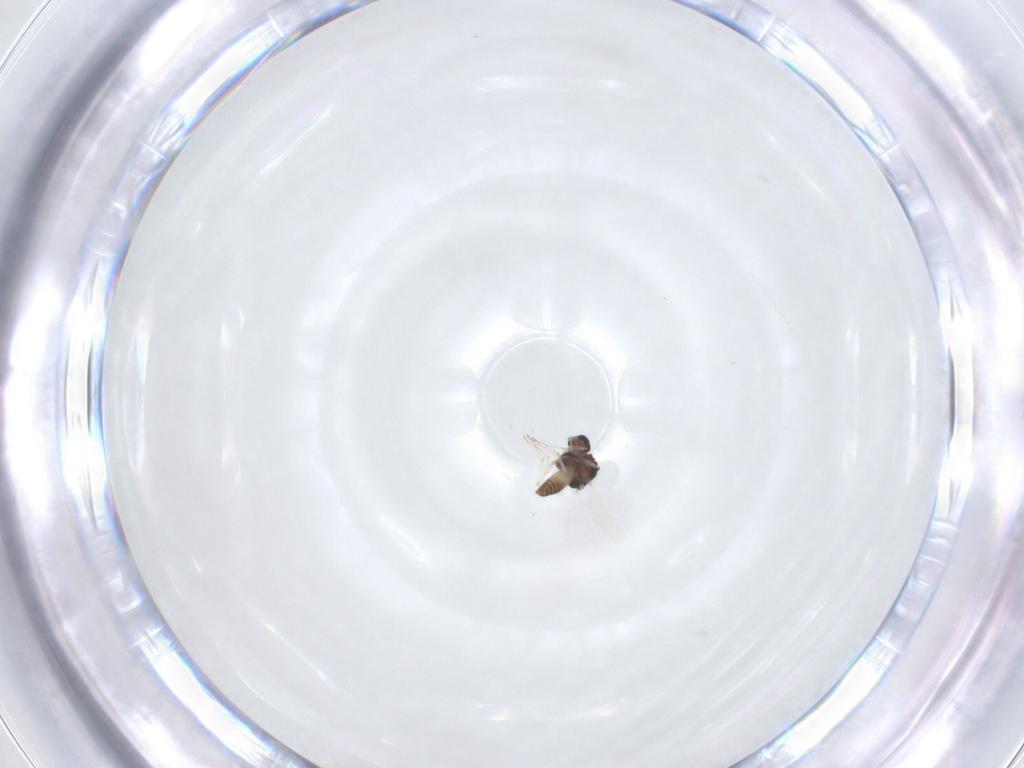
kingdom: Animalia
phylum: Arthropoda
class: Insecta
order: Diptera
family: Chironomidae
